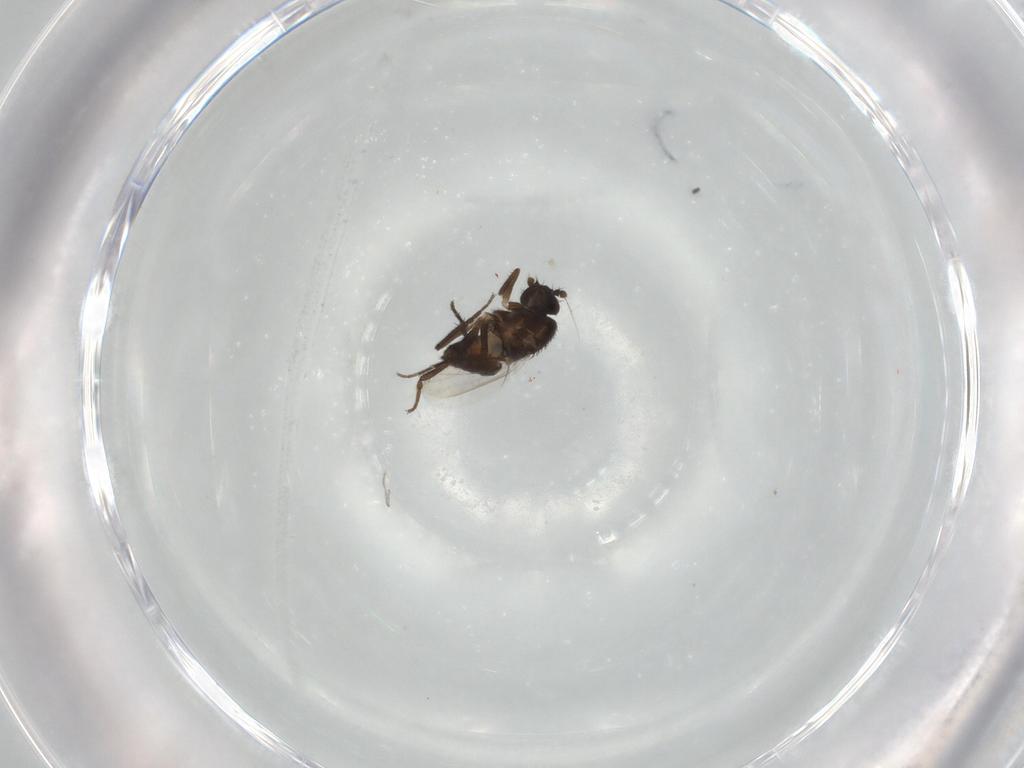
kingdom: Animalia
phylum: Arthropoda
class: Insecta
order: Diptera
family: Sphaeroceridae
